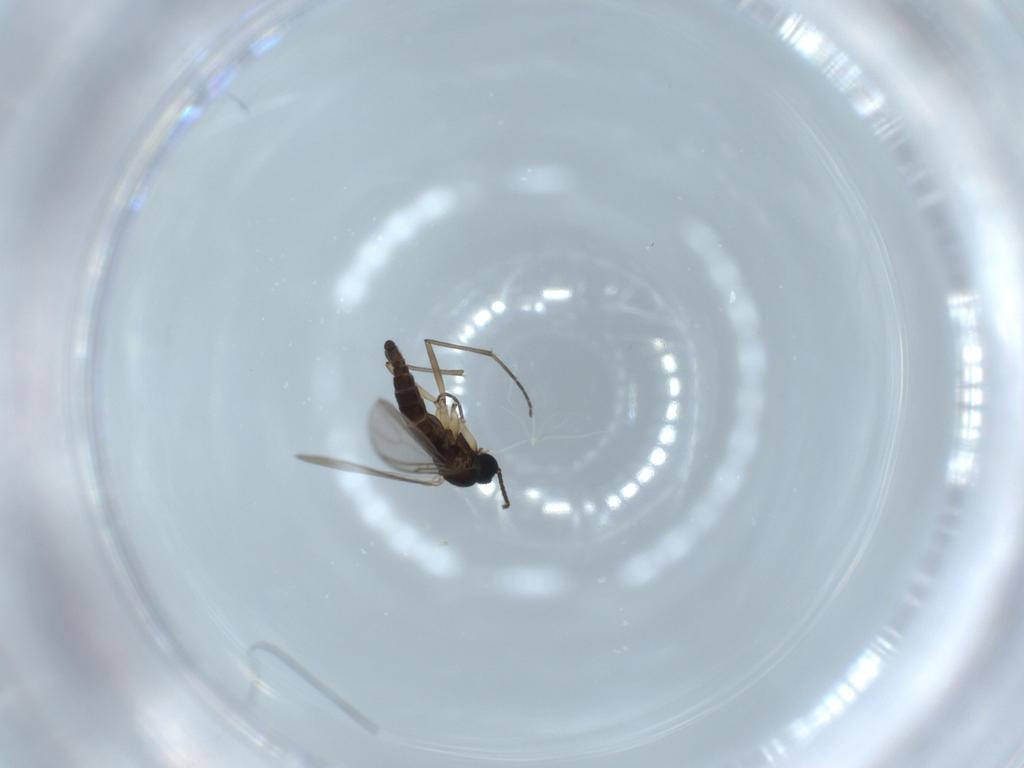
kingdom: Animalia
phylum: Arthropoda
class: Insecta
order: Diptera
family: Sciaridae
